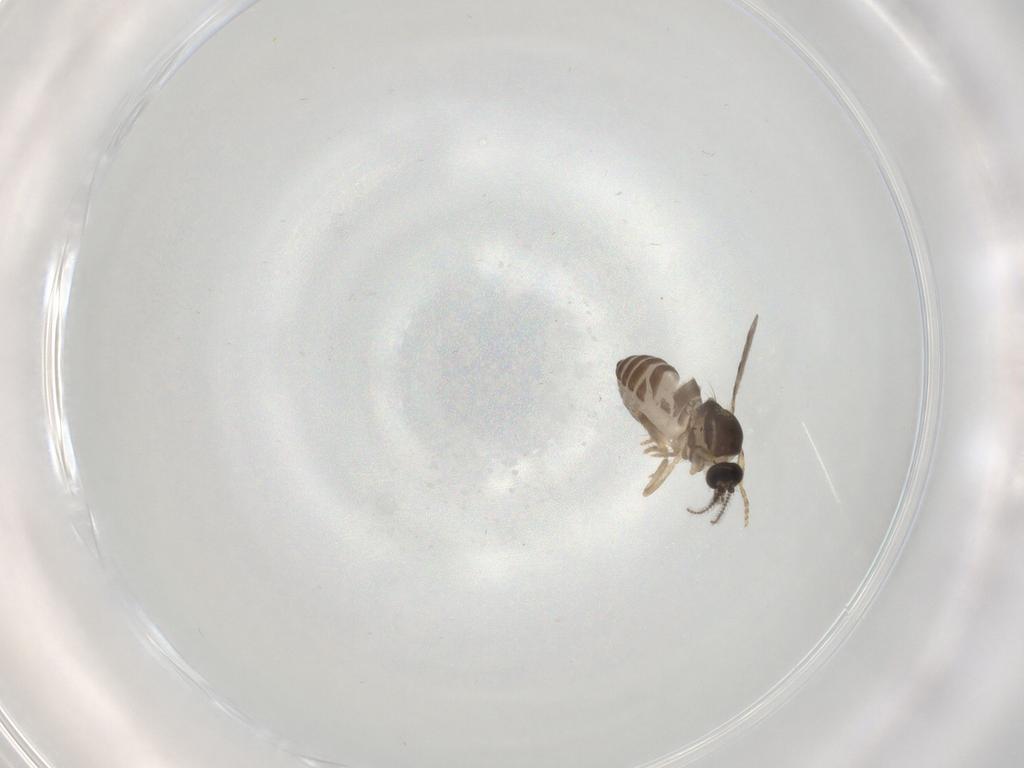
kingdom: Animalia
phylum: Arthropoda
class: Insecta
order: Diptera
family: Ceratopogonidae
